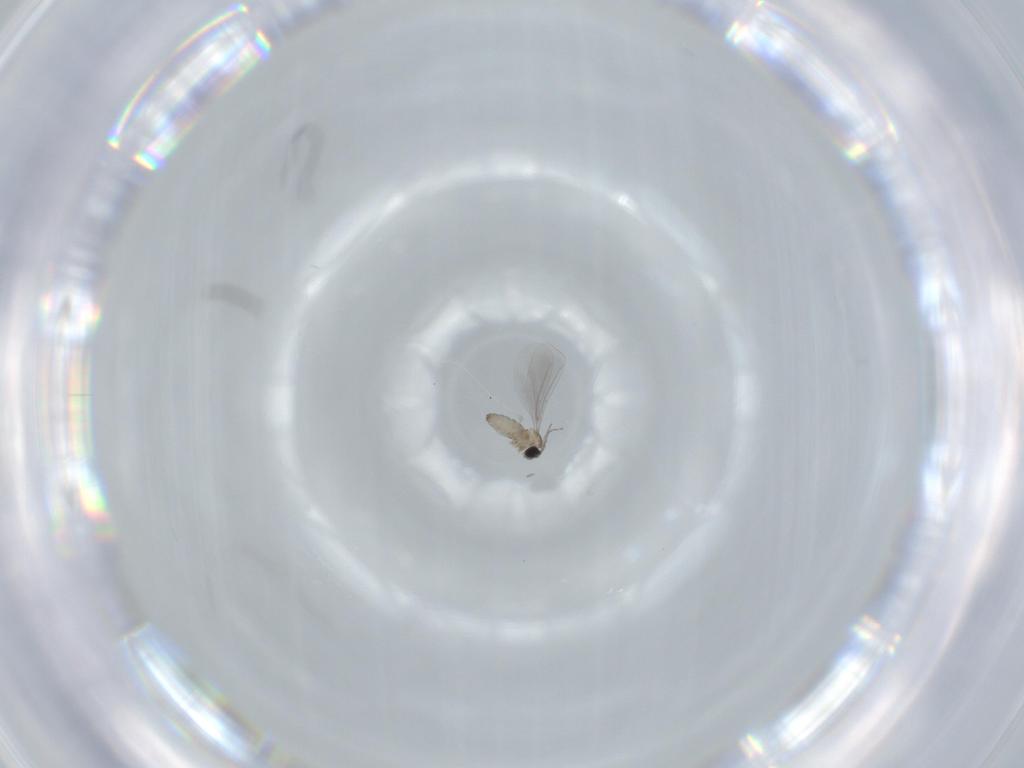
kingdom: Animalia
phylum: Arthropoda
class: Insecta
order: Diptera
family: Cecidomyiidae
